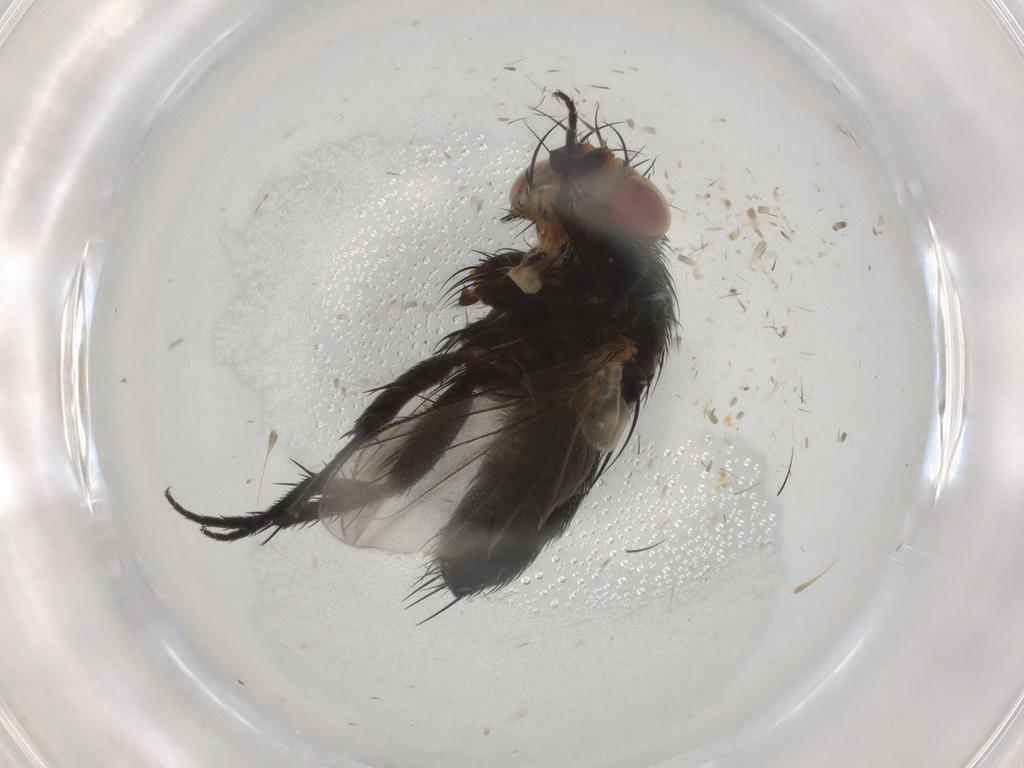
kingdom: Animalia
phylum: Arthropoda
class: Insecta
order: Diptera
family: Tachinidae
